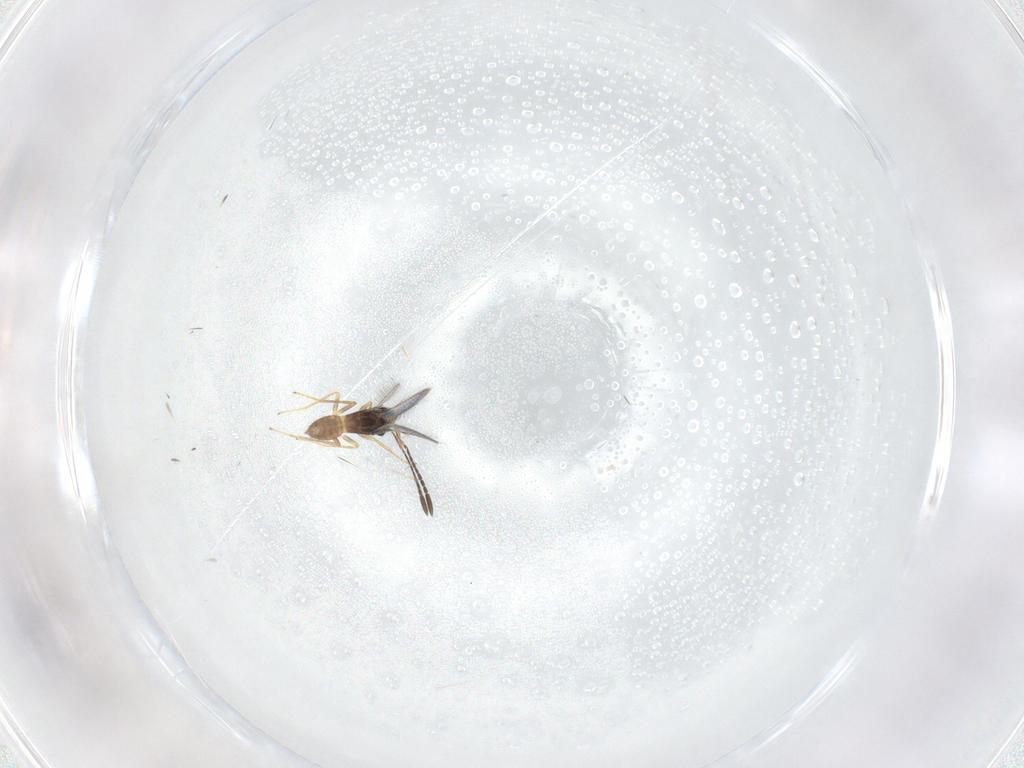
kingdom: Animalia
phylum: Arthropoda
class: Insecta
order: Hymenoptera
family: Mymaridae
